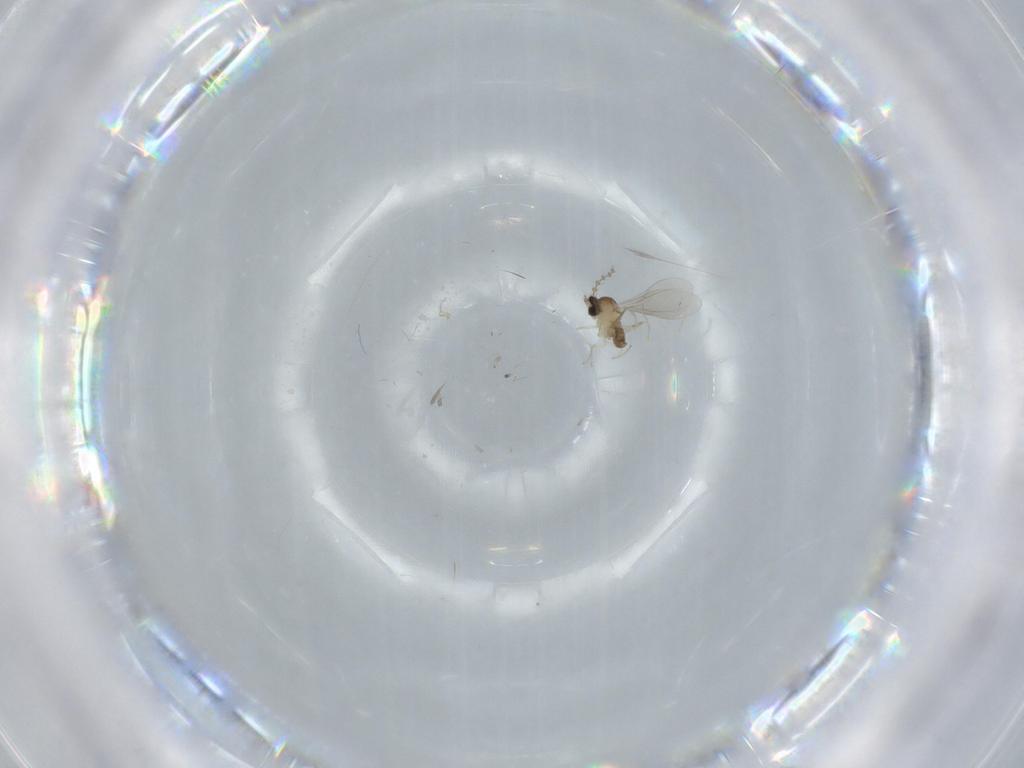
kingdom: Animalia
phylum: Arthropoda
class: Insecta
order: Diptera
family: Cecidomyiidae
